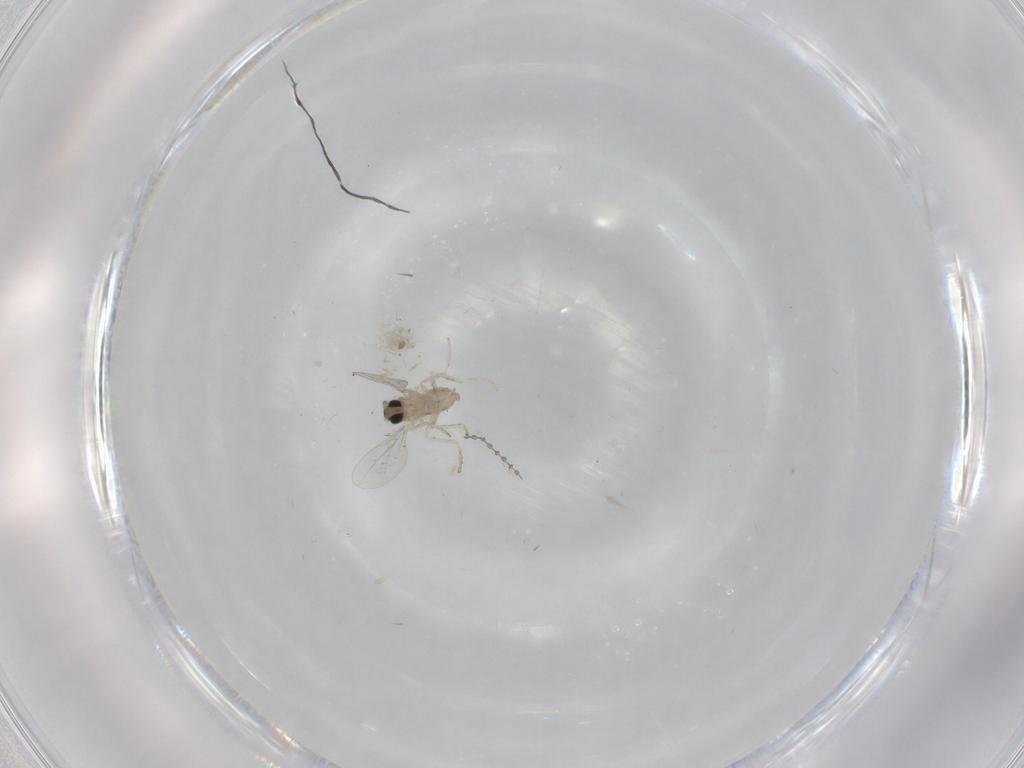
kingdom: Animalia
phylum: Arthropoda
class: Insecta
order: Diptera
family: Cecidomyiidae
